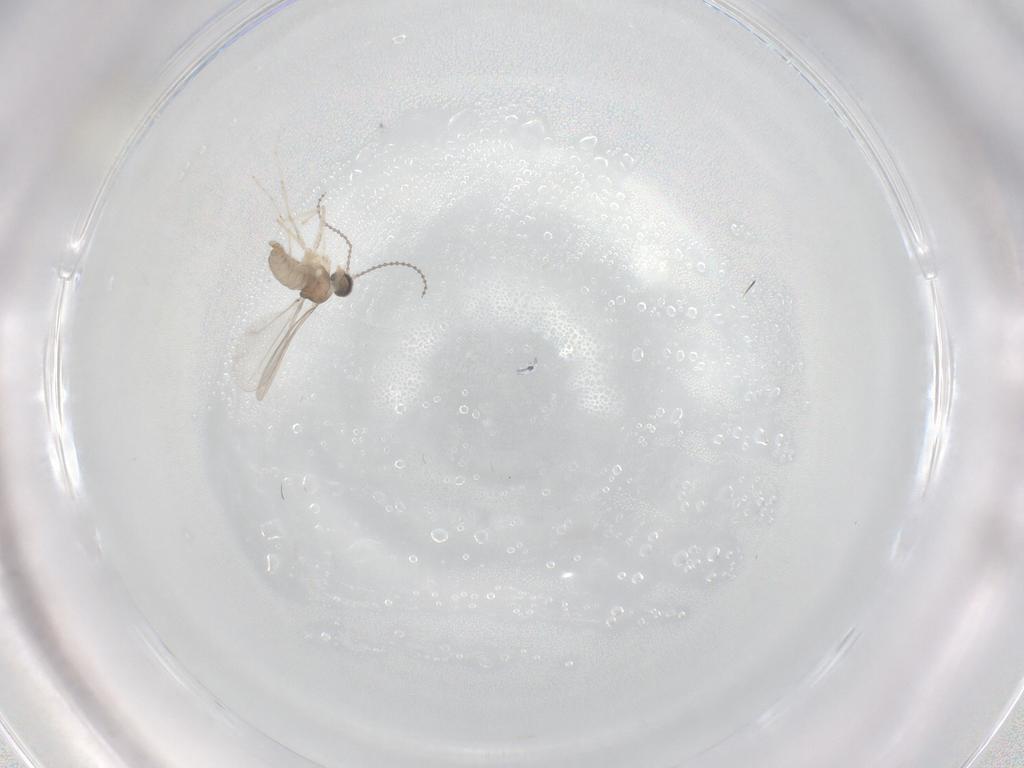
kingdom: Animalia
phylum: Arthropoda
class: Insecta
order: Diptera
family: Cecidomyiidae
